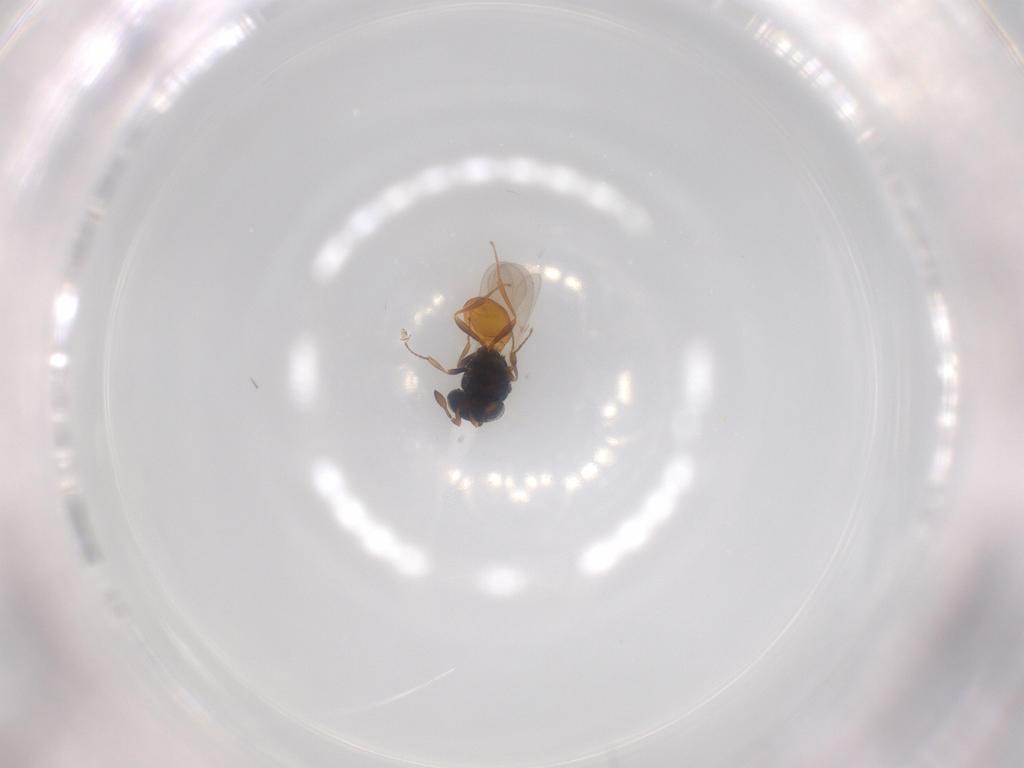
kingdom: Animalia
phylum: Arthropoda
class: Insecta
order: Hymenoptera
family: Scelionidae
